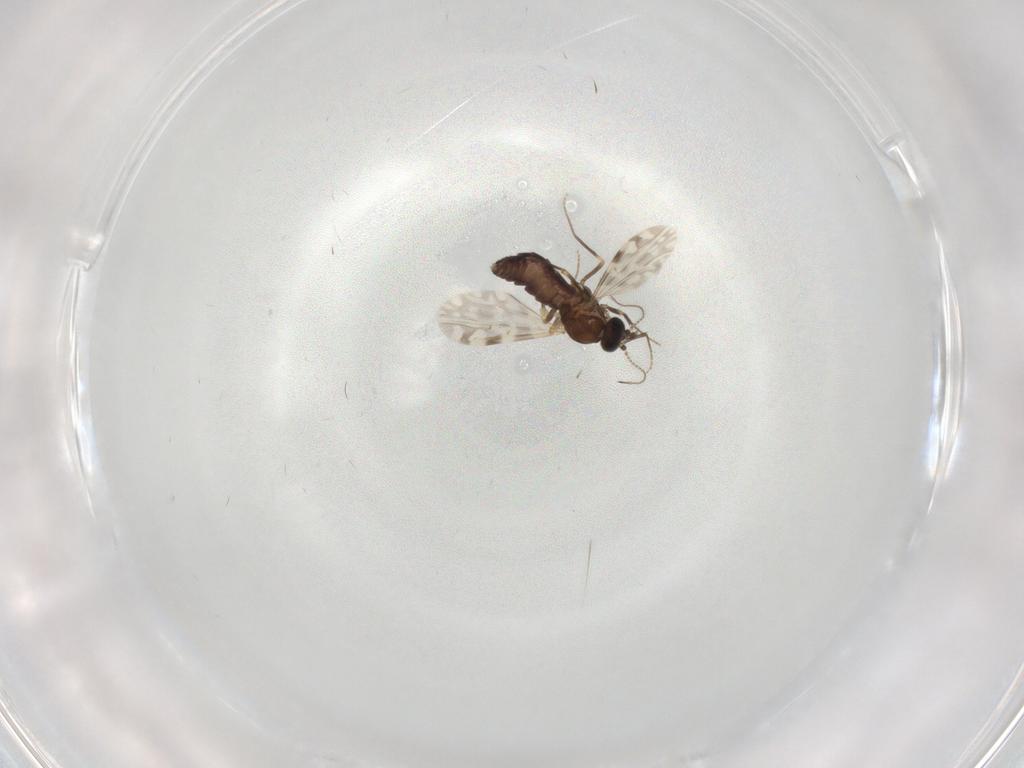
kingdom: Animalia
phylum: Arthropoda
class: Insecta
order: Diptera
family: Ceratopogonidae
